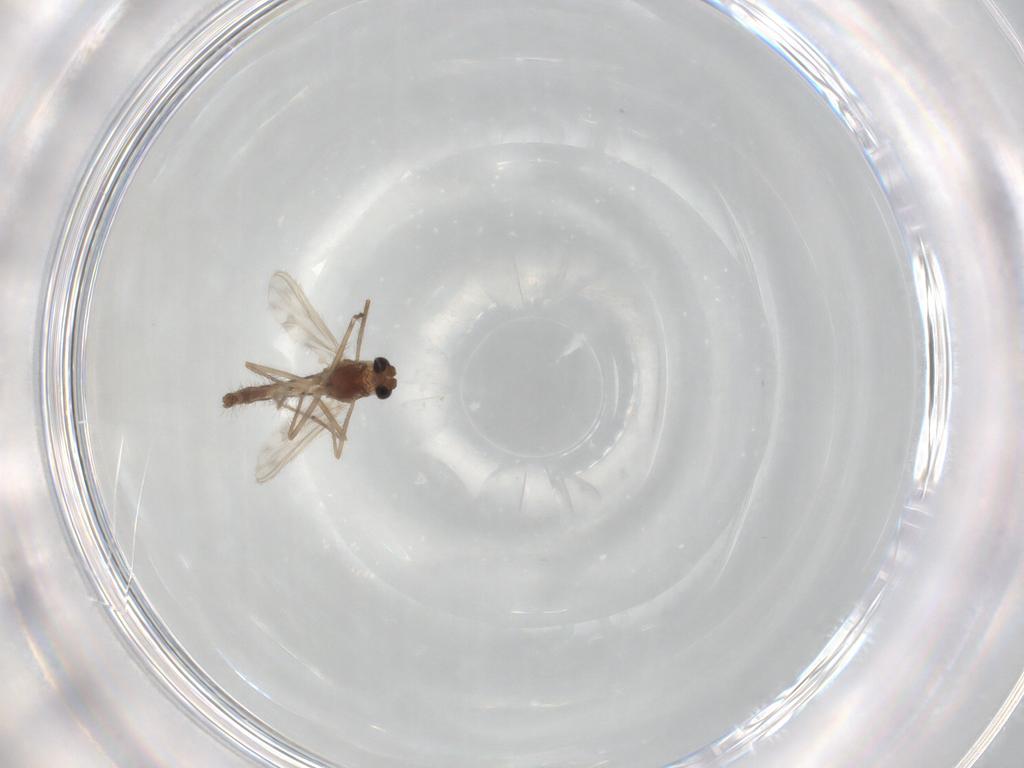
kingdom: Animalia
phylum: Arthropoda
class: Insecta
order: Diptera
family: Chironomidae
